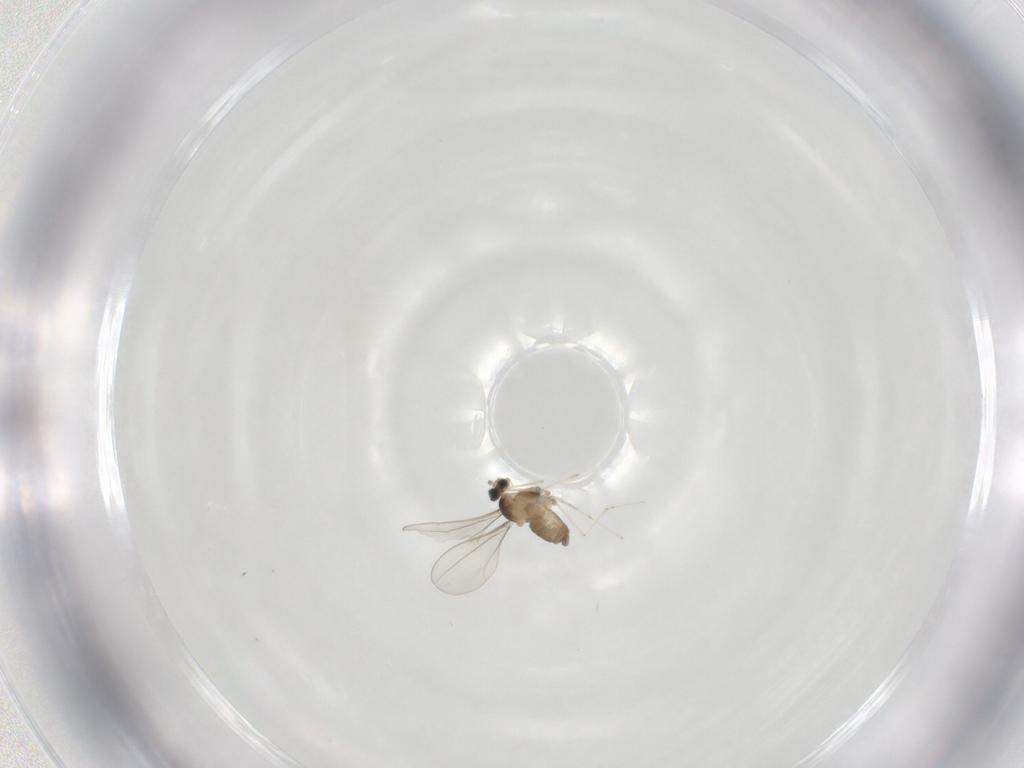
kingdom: Animalia
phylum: Arthropoda
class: Insecta
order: Diptera
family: Cecidomyiidae
